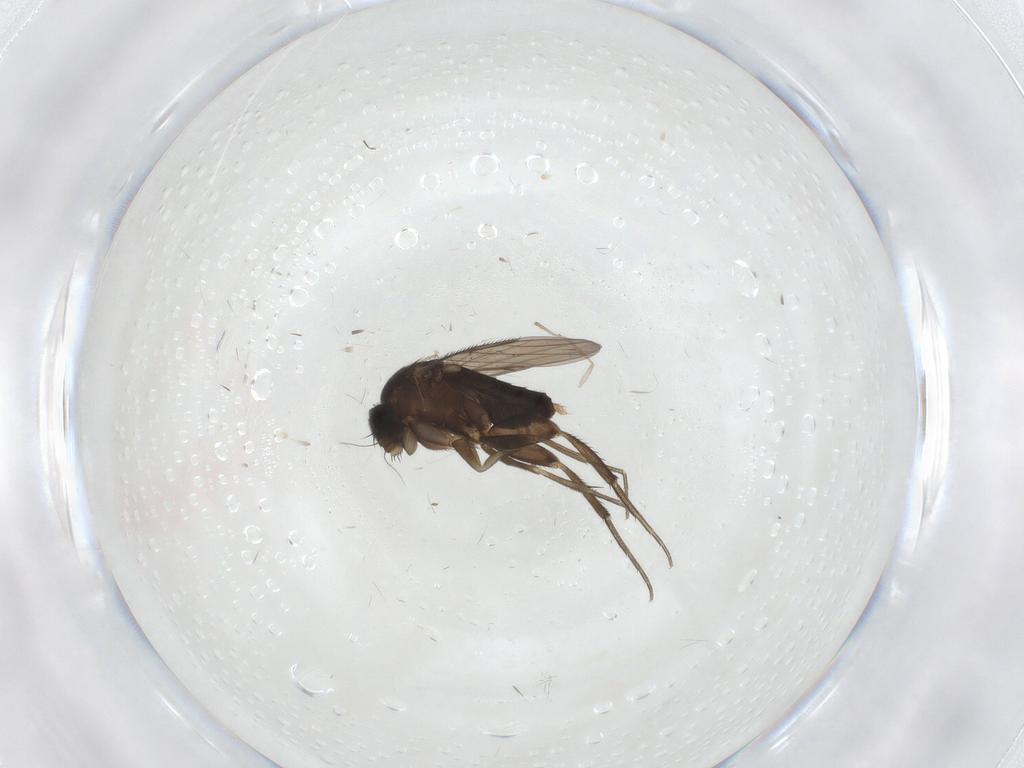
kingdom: Animalia
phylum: Arthropoda
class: Insecta
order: Diptera
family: Phoridae
